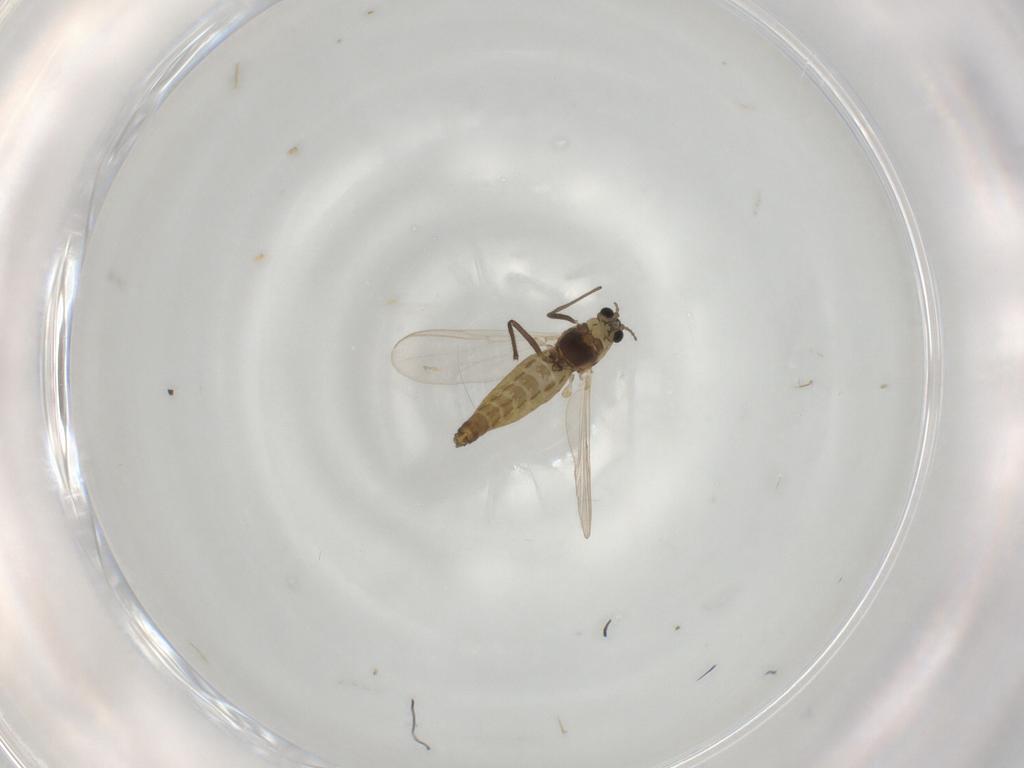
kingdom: Animalia
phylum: Arthropoda
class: Insecta
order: Diptera
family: Chironomidae
